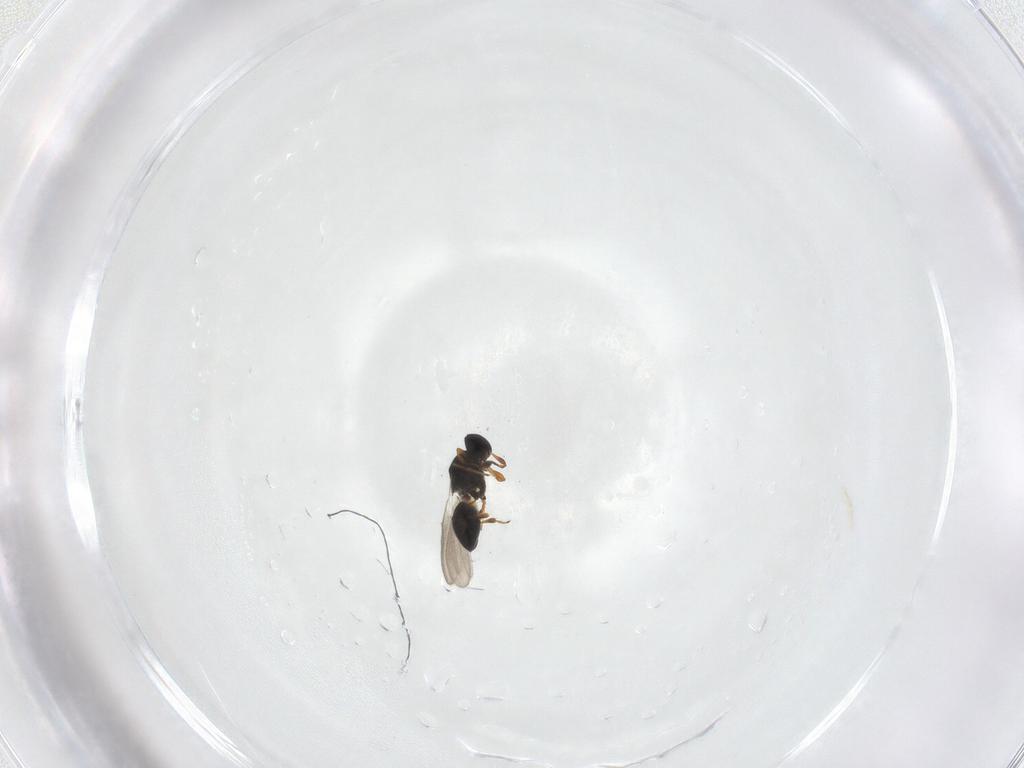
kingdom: Animalia
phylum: Arthropoda
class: Insecta
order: Hymenoptera
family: Platygastridae
